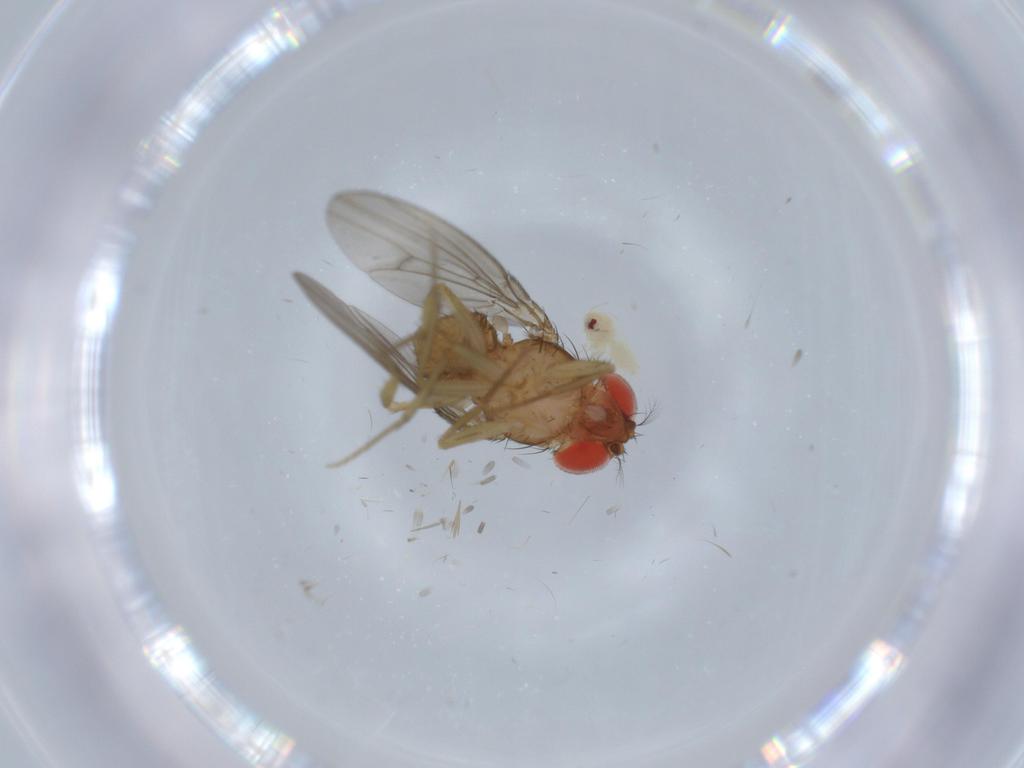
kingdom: Animalia
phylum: Arthropoda
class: Insecta
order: Diptera
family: Drosophilidae
